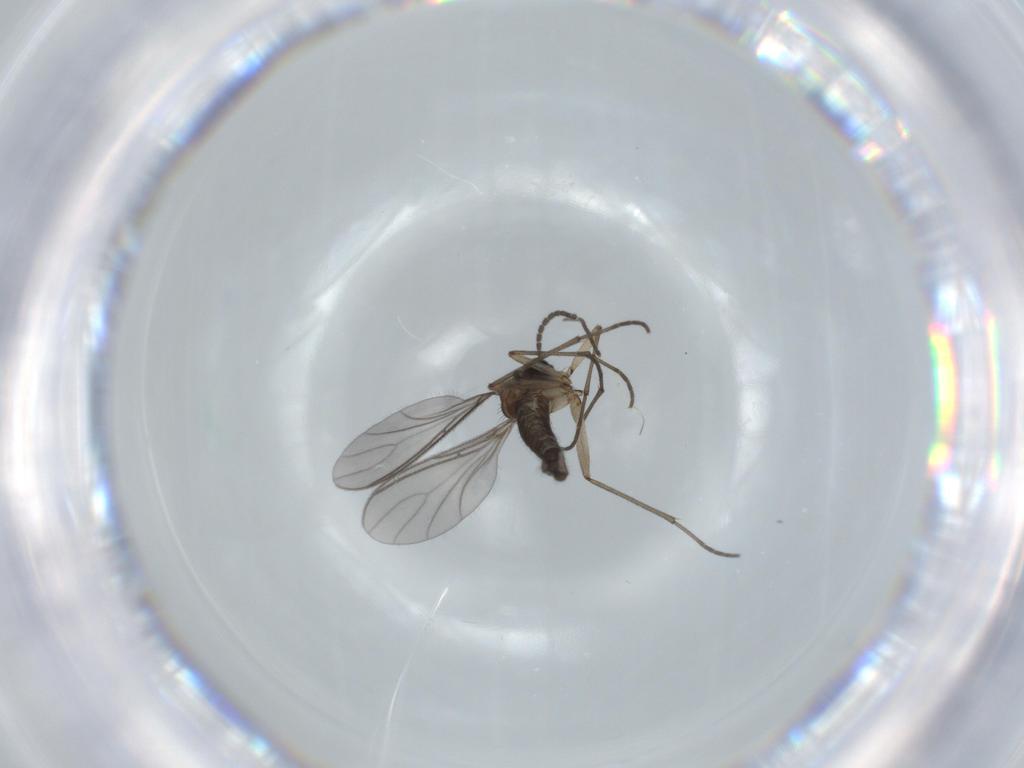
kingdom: Animalia
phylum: Arthropoda
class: Insecta
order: Diptera
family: Sciaridae
